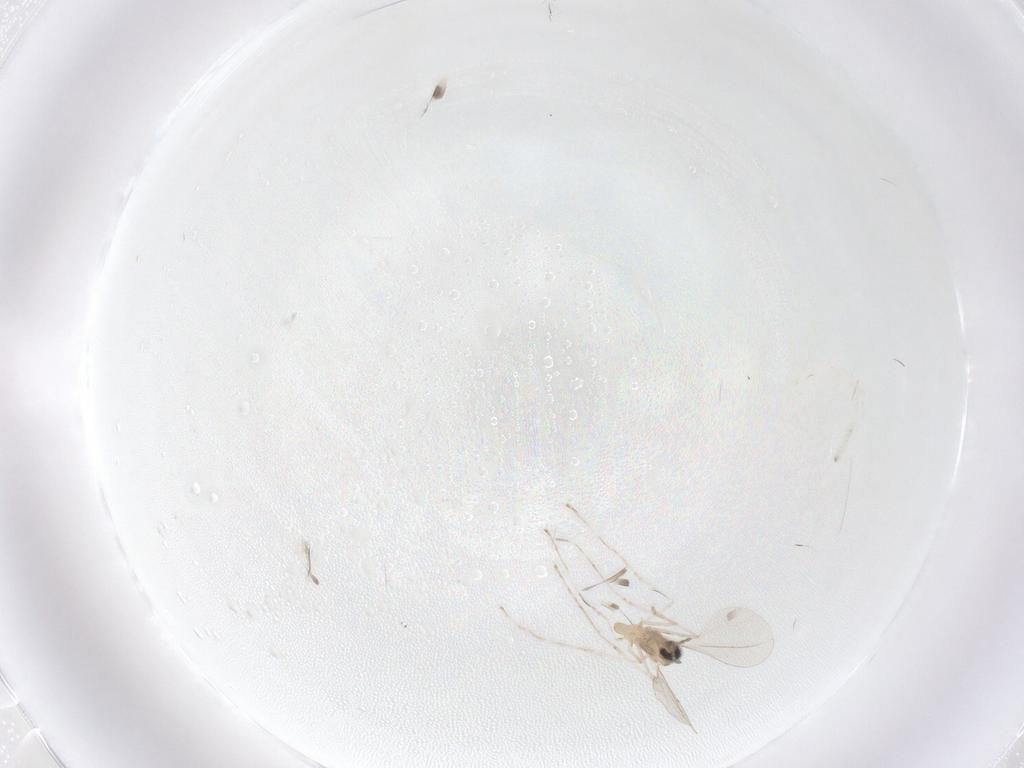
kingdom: Animalia
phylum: Arthropoda
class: Insecta
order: Diptera
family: Cecidomyiidae
